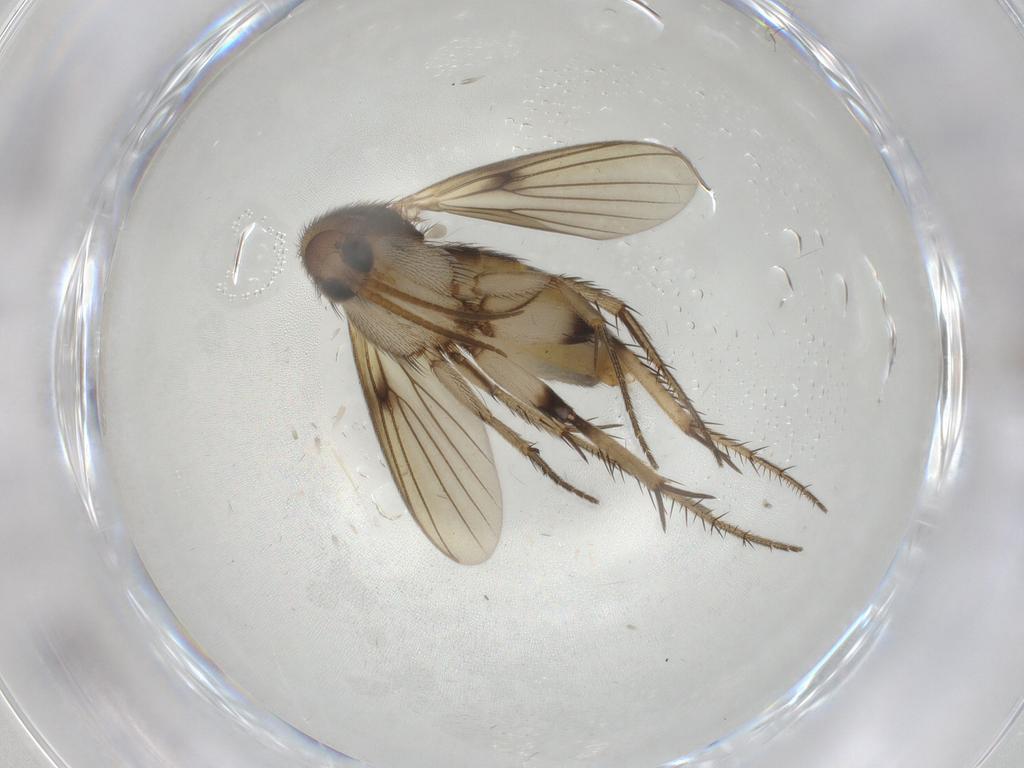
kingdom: Animalia
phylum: Arthropoda
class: Insecta
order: Diptera
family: Mycetophilidae
